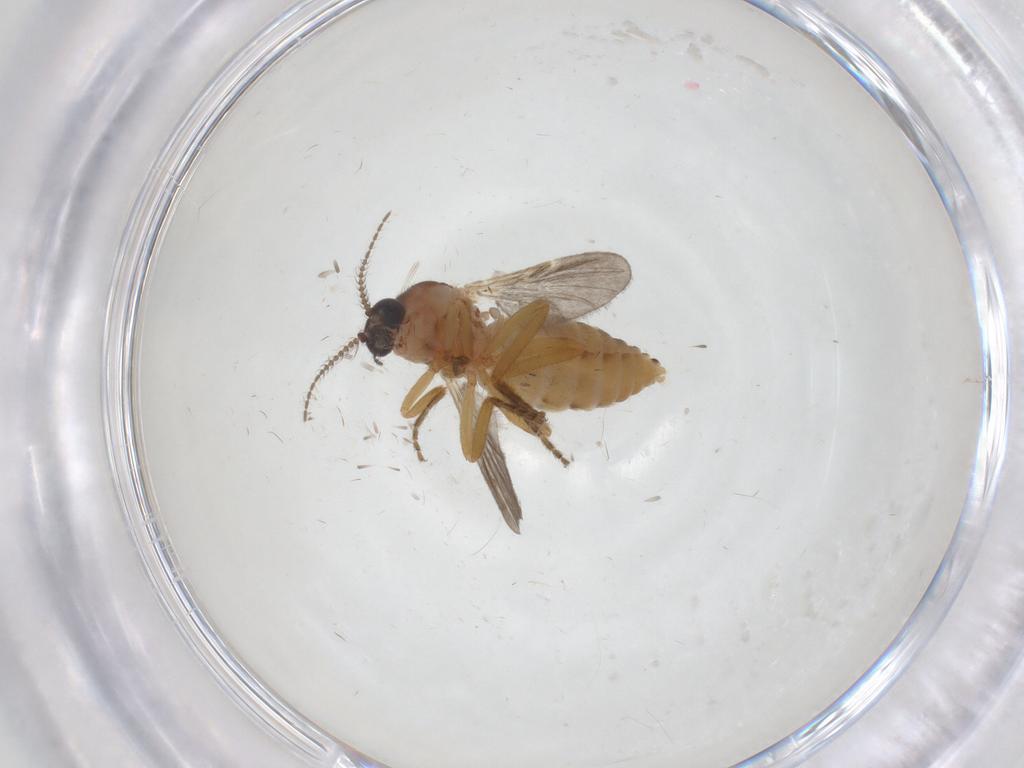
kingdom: Animalia
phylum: Arthropoda
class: Insecta
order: Diptera
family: Chironomidae
